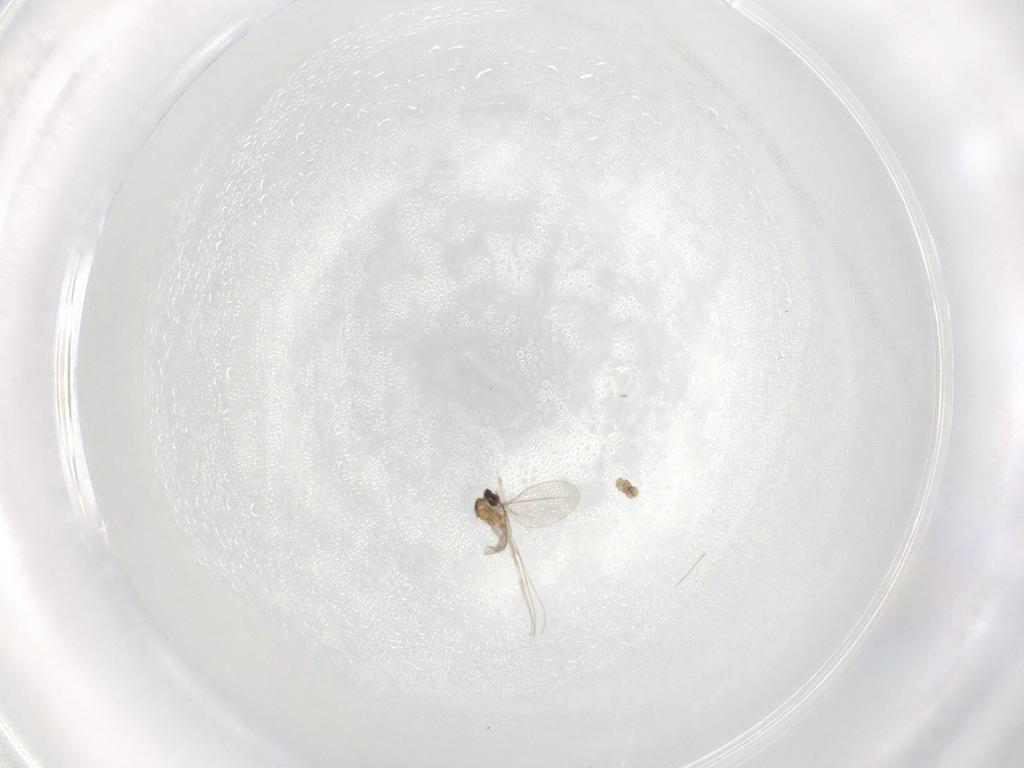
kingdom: Animalia
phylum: Arthropoda
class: Insecta
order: Diptera
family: Cecidomyiidae
